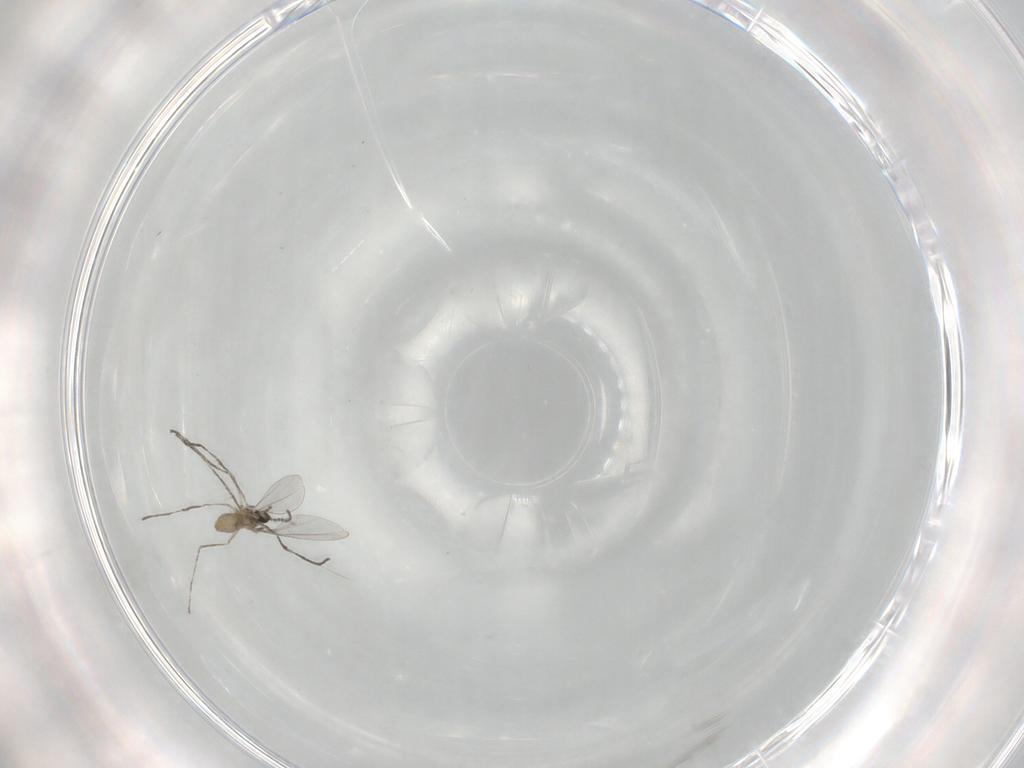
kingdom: Animalia
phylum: Arthropoda
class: Insecta
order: Diptera
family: Cecidomyiidae
